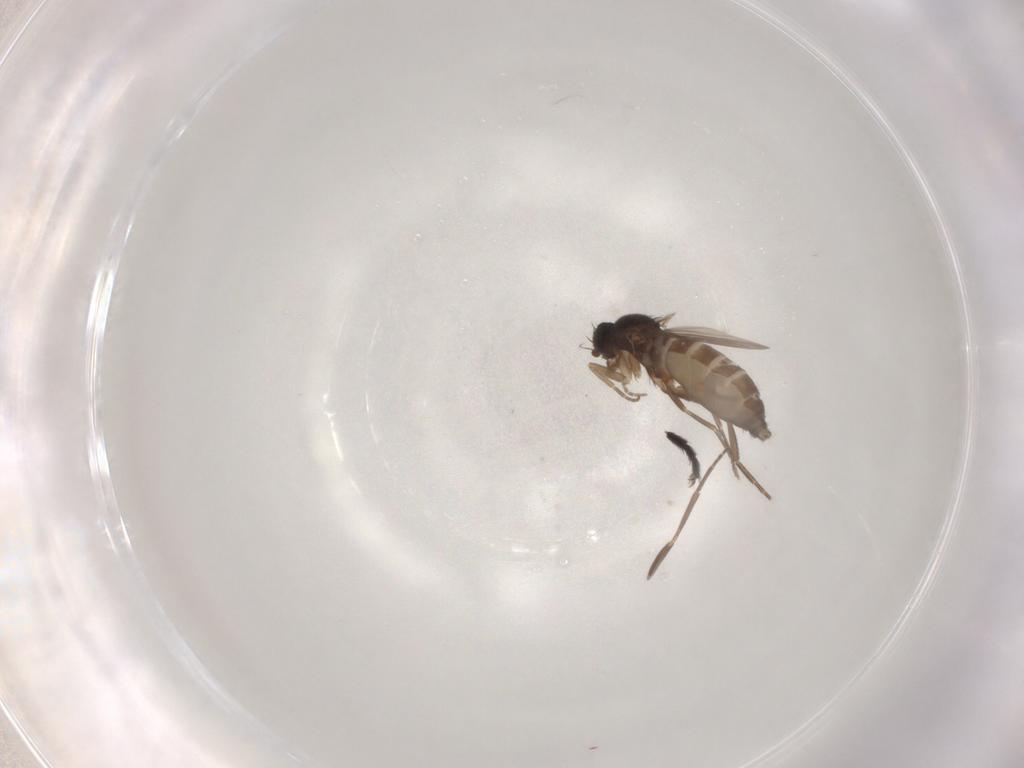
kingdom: Animalia
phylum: Arthropoda
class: Insecta
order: Diptera
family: Phoridae
